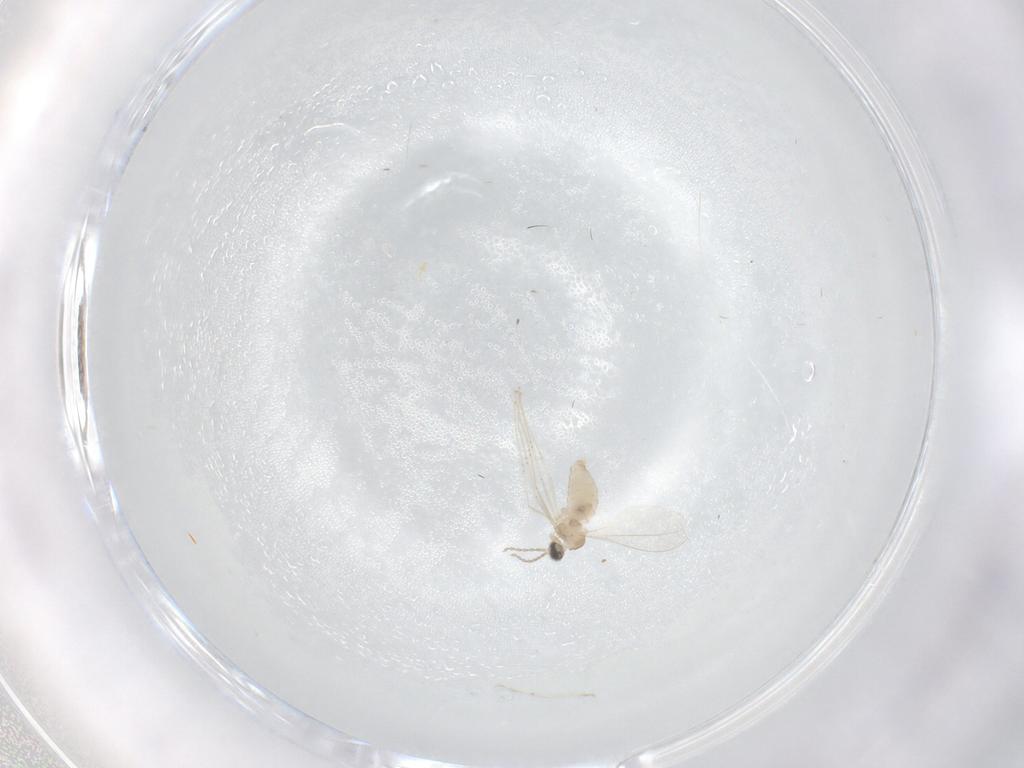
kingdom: Animalia
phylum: Arthropoda
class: Insecta
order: Diptera
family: Cecidomyiidae
